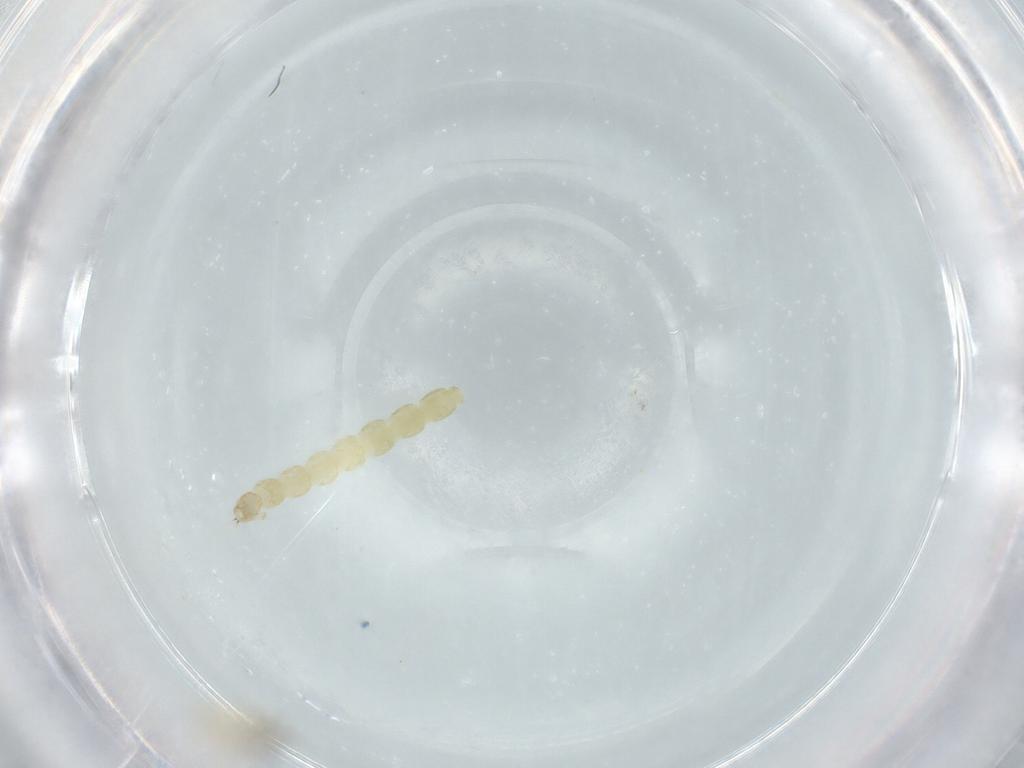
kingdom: Animalia
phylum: Arthropoda
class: Insecta
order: Diptera
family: Chironomidae
